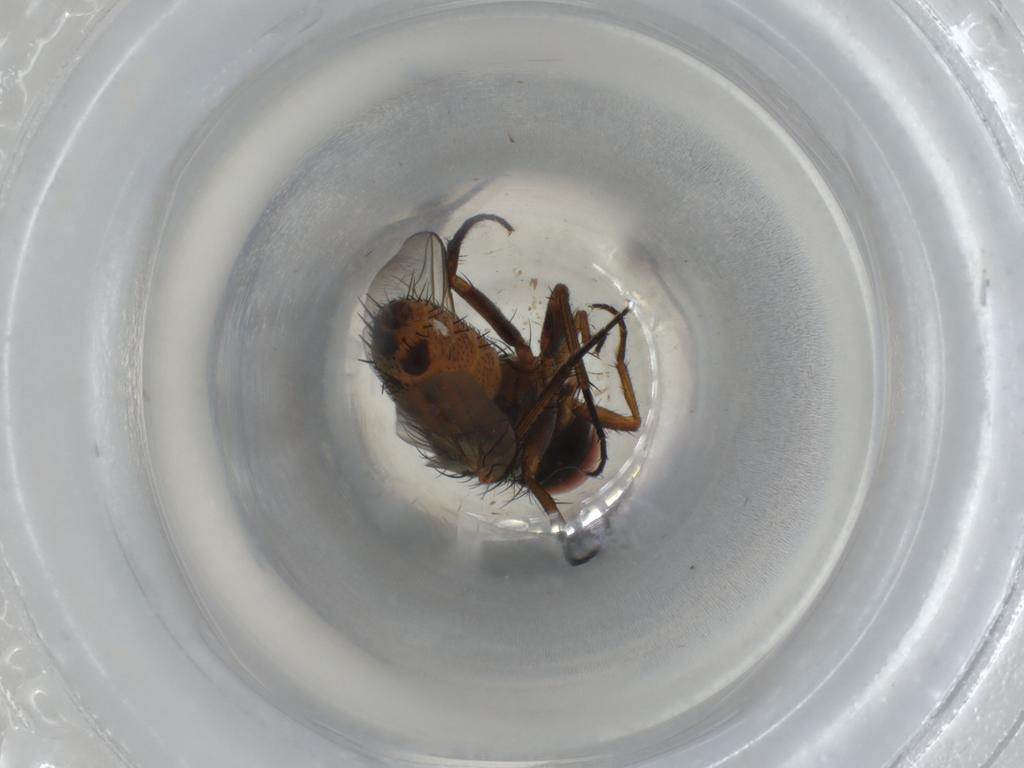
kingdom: Animalia
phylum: Arthropoda
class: Insecta
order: Diptera
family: Sarcophagidae
